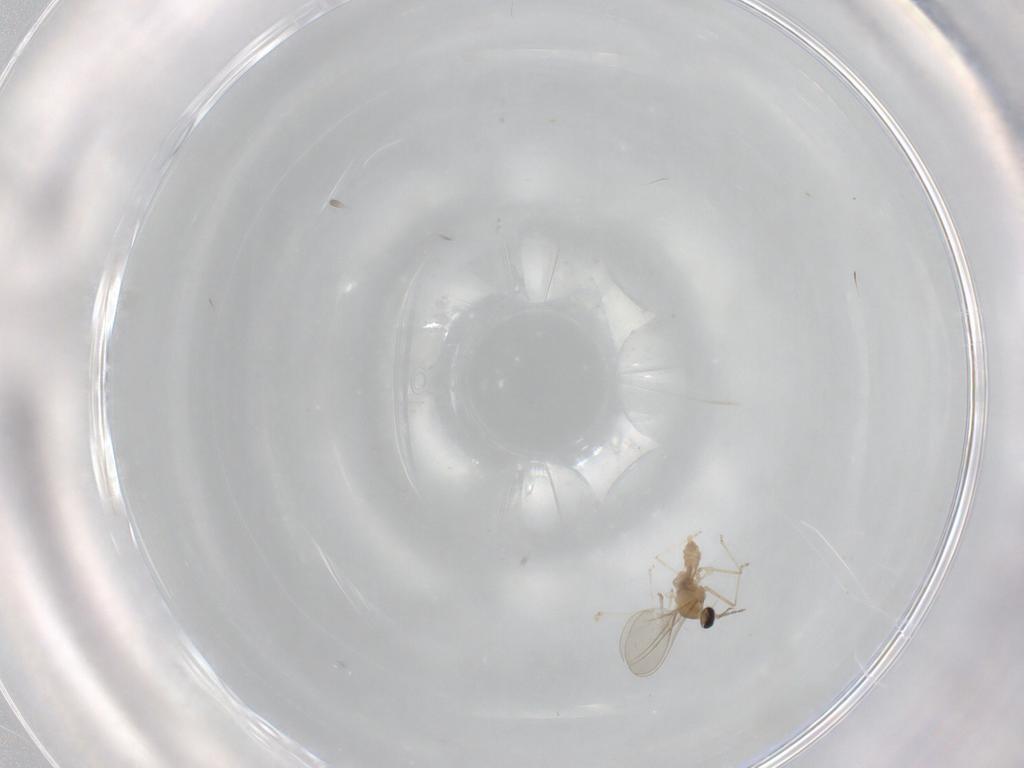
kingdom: Animalia
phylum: Arthropoda
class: Insecta
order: Diptera
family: Cecidomyiidae
